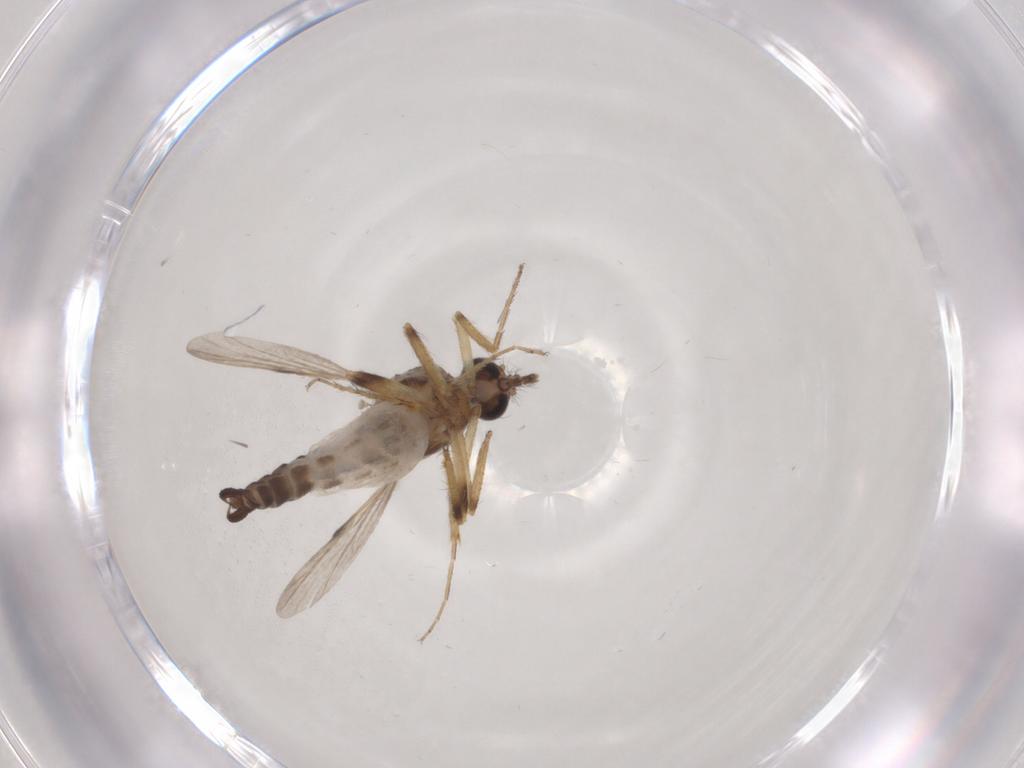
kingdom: Animalia
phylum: Arthropoda
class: Insecta
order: Diptera
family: Ceratopogonidae
